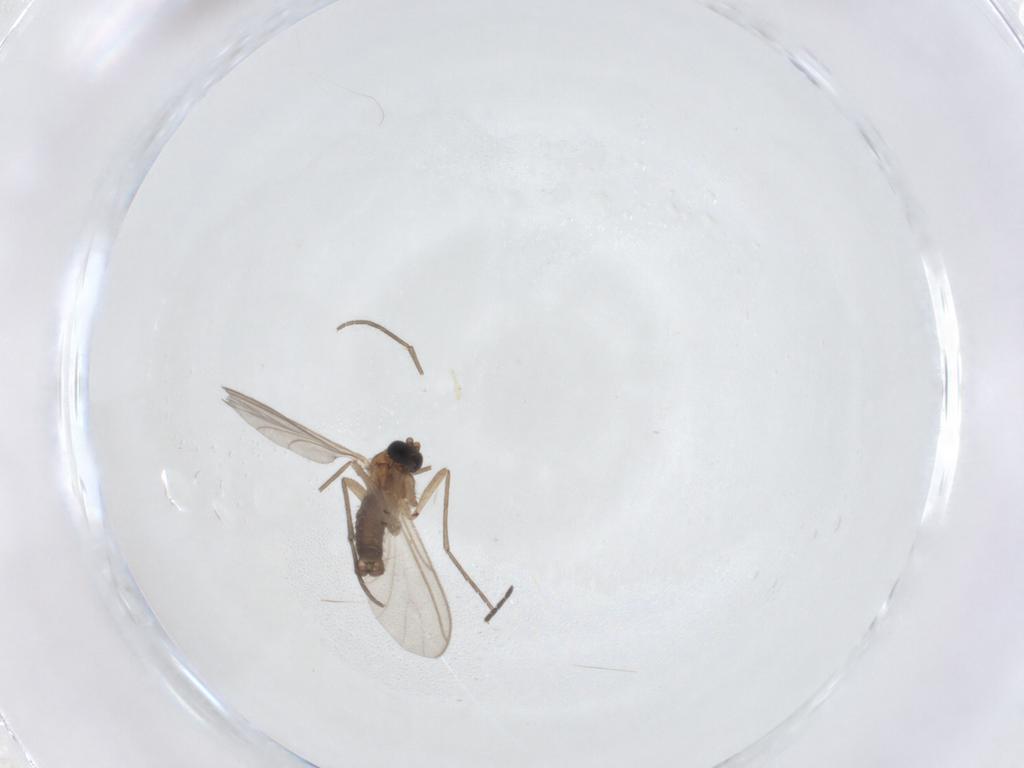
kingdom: Animalia
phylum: Arthropoda
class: Insecta
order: Diptera
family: Sciaridae
